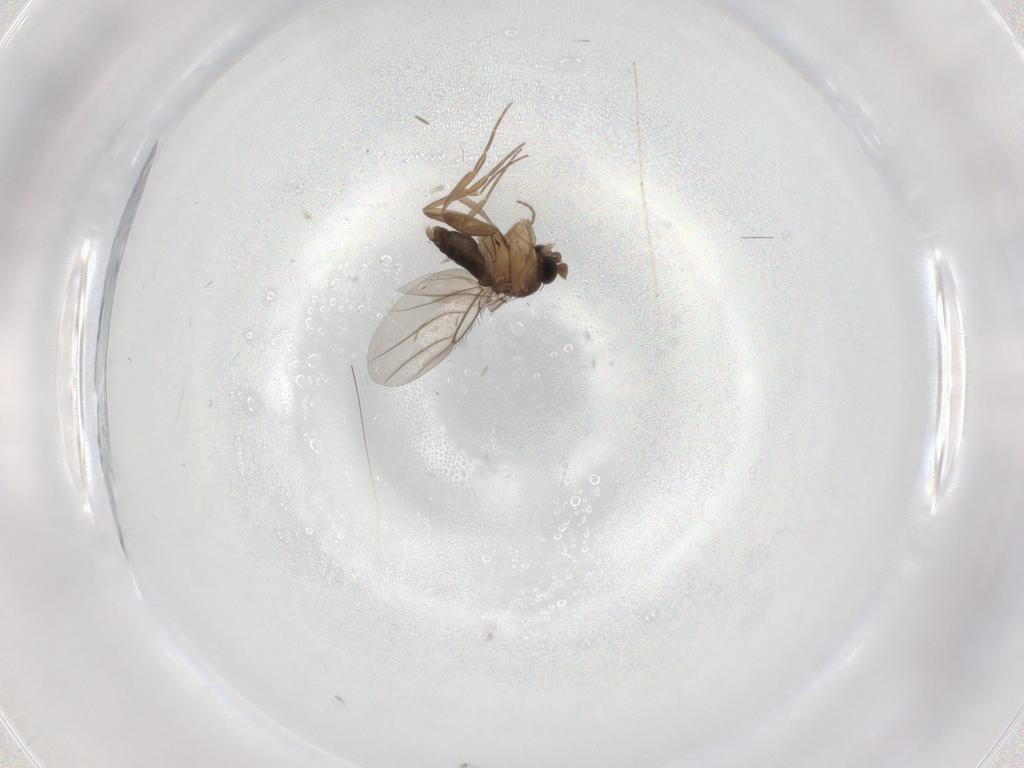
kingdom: Animalia
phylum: Arthropoda
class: Insecta
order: Diptera
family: Cecidomyiidae
